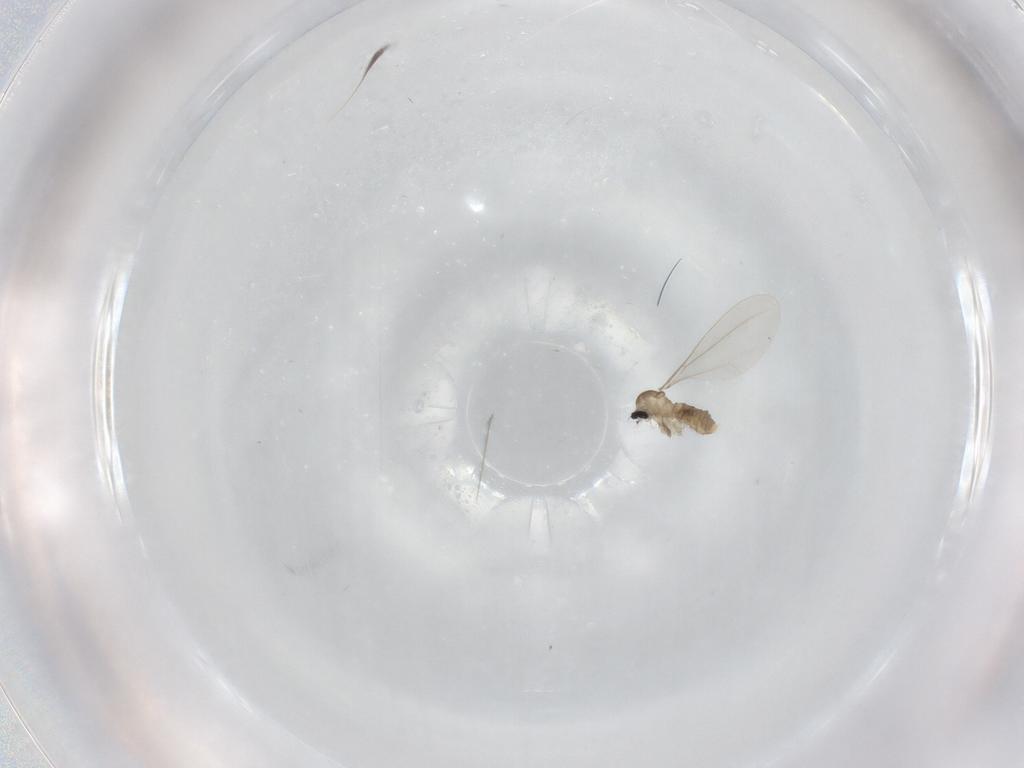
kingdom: Animalia
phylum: Arthropoda
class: Insecta
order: Diptera
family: Cecidomyiidae
